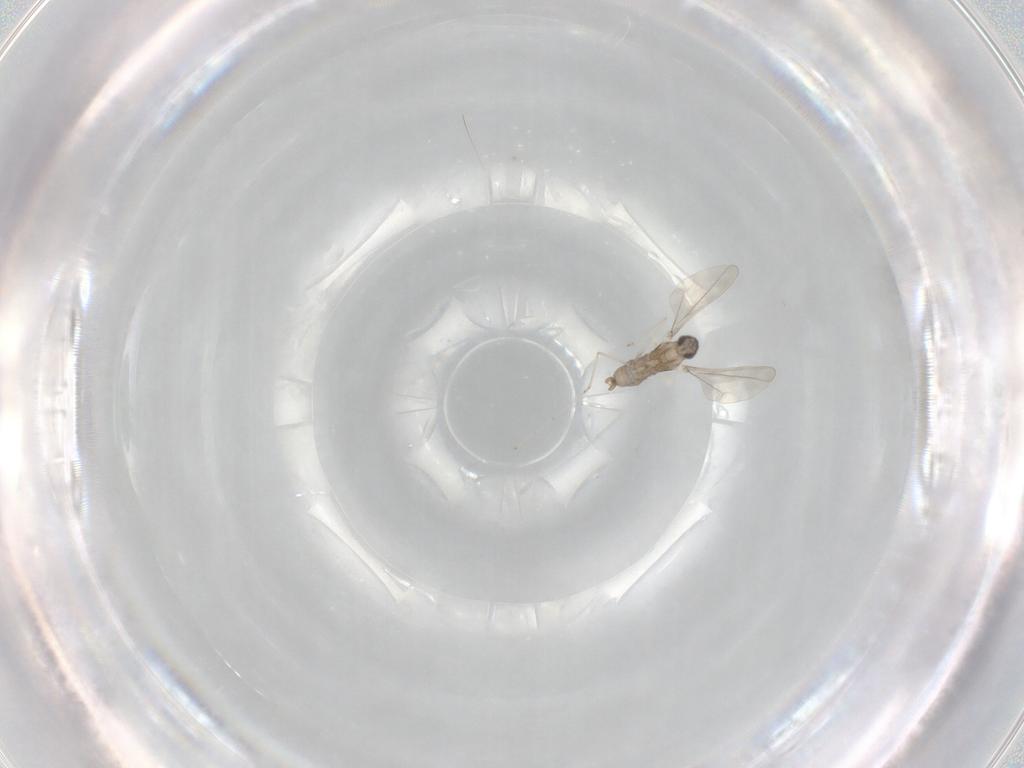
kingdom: Animalia
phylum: Arthropoda
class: Insecta
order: Diptera
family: Cecidomyiidae
